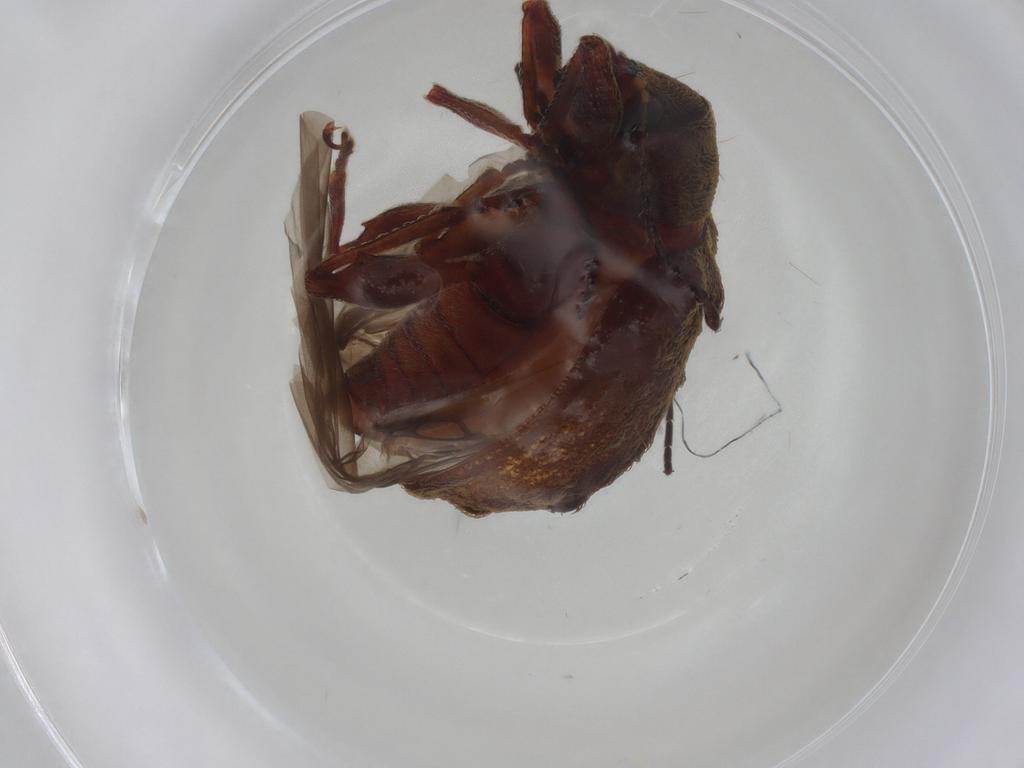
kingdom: Animalia
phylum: Arthropoda
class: Insecta
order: Coleoptera
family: Chrysomelidae
